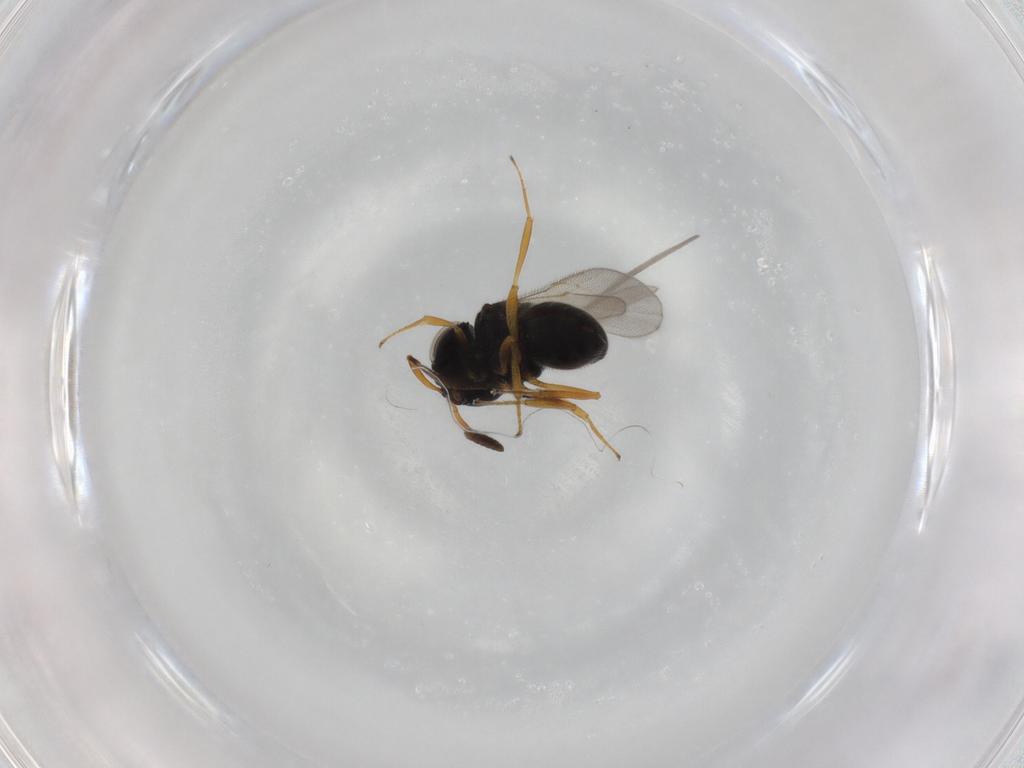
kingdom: Animalia
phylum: Arthropoda
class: Insecta
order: Hymenoptera
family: Scelionidae
